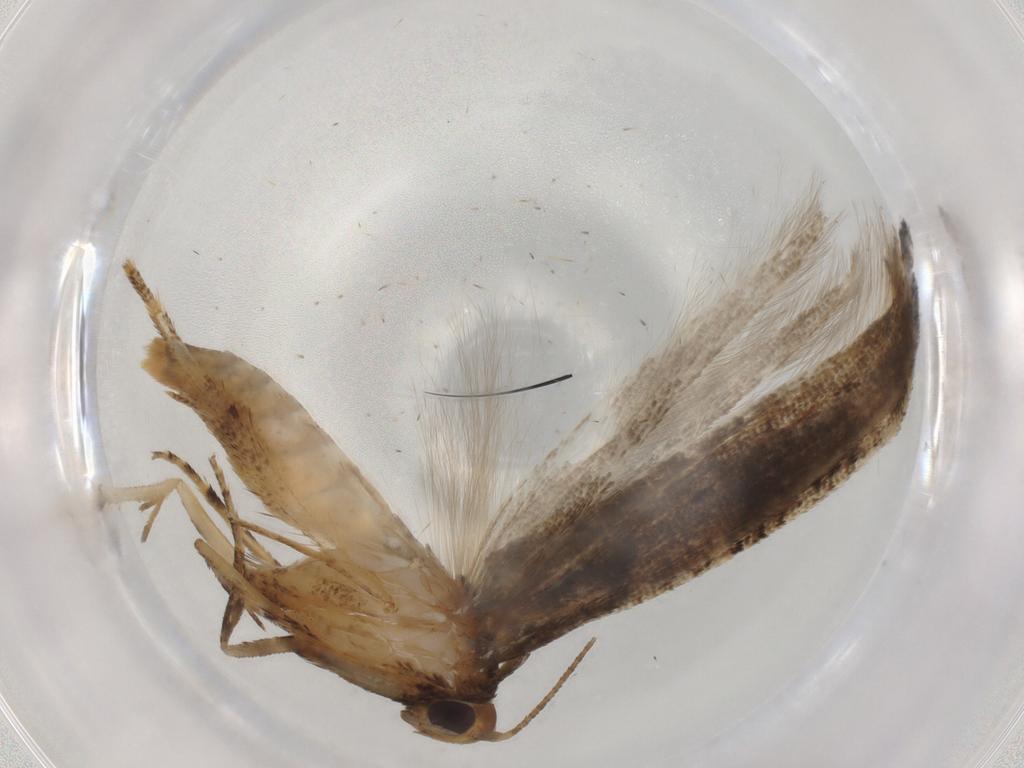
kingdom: Animalia
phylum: Arthropoda
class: Insecta
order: Lepidoptera
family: Epermeniidae
